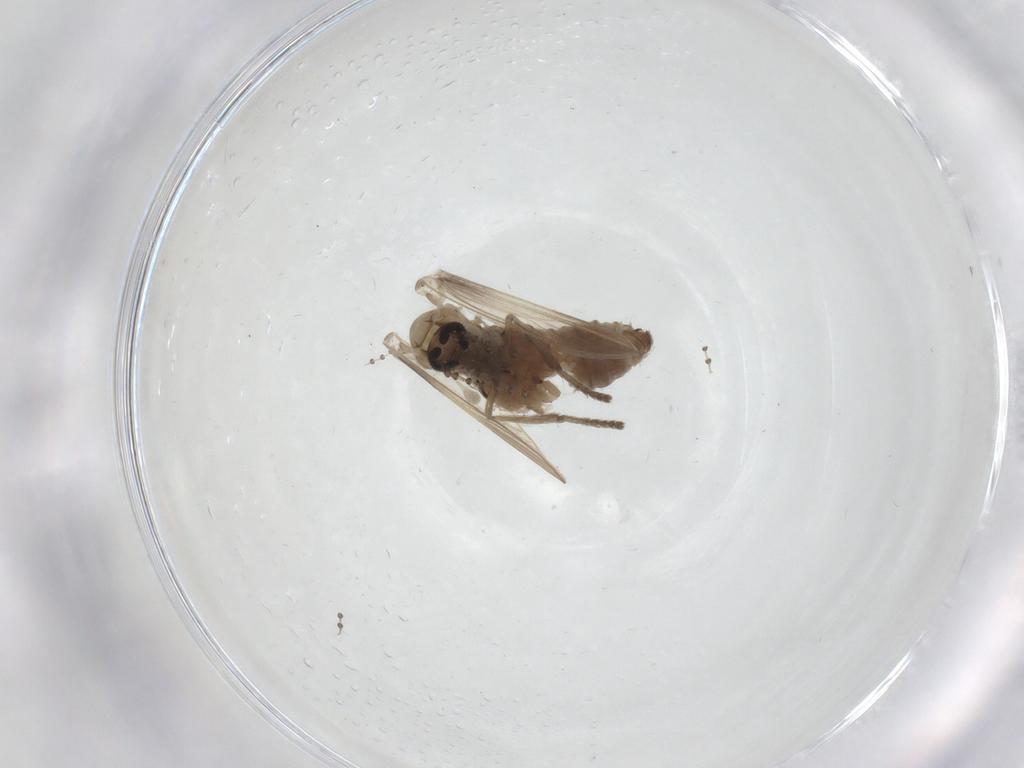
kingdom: Animalia
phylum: Arthropoda
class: Insecta
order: Diptera
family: Psychodidae
